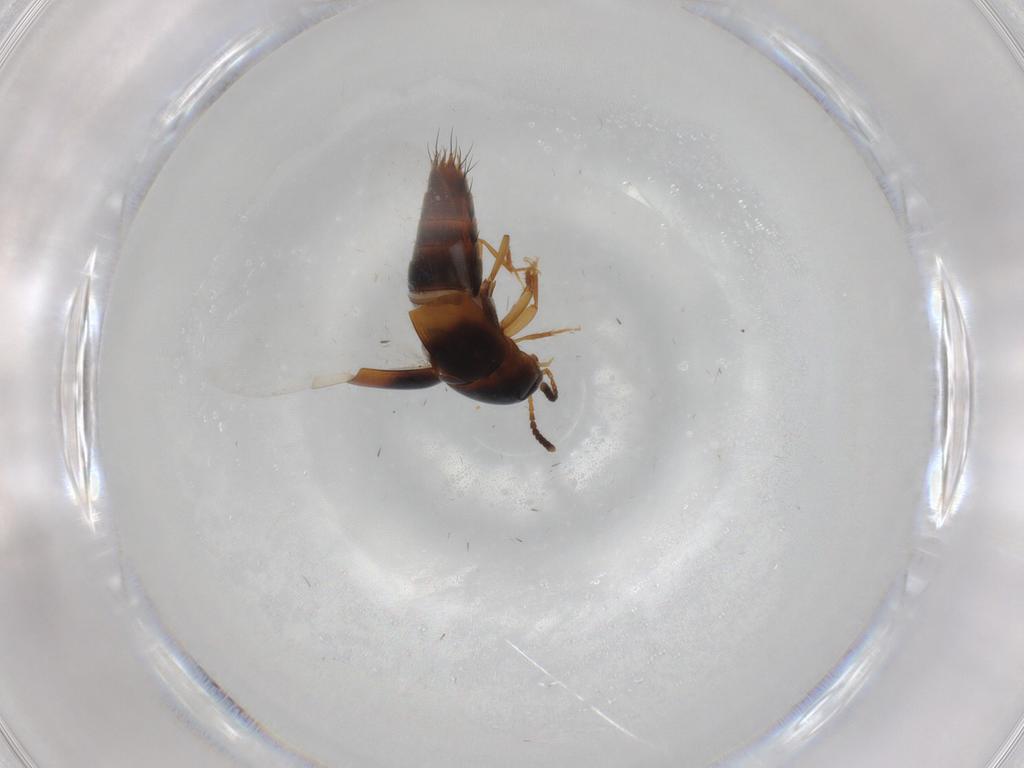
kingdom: Animalia
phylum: Arthropoda
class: Insecta
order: Coleoptera
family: Staphylinidae
